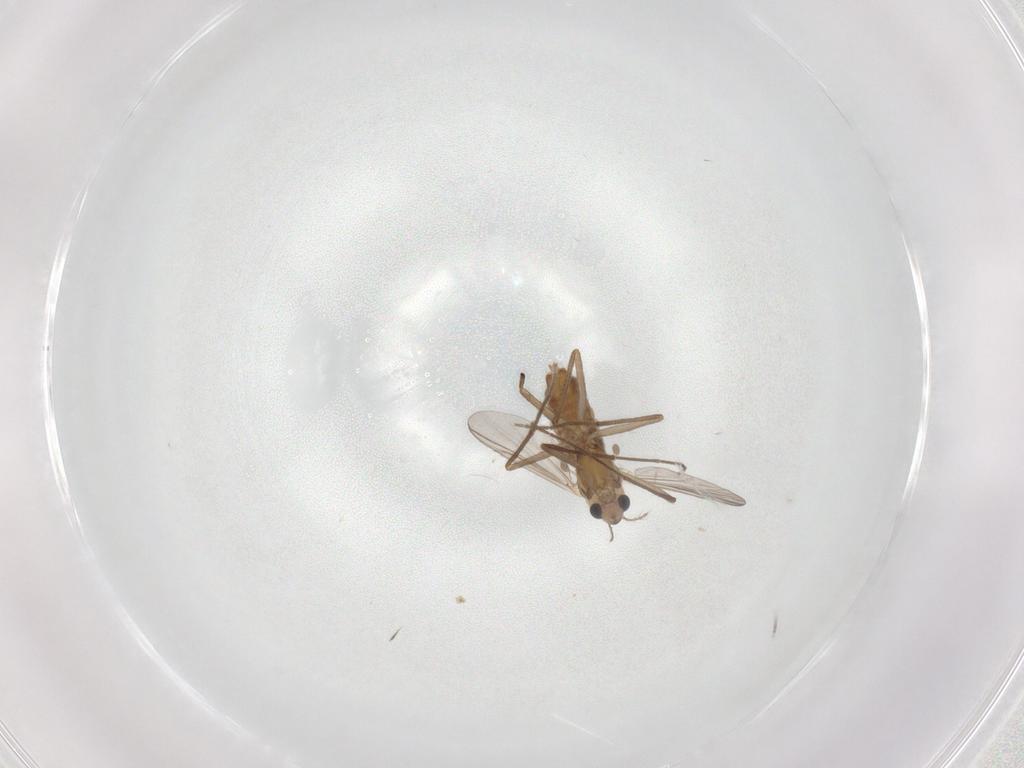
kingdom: Animalia
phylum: Arthropoda
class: Insecta
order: Diptera
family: Chironomidae
